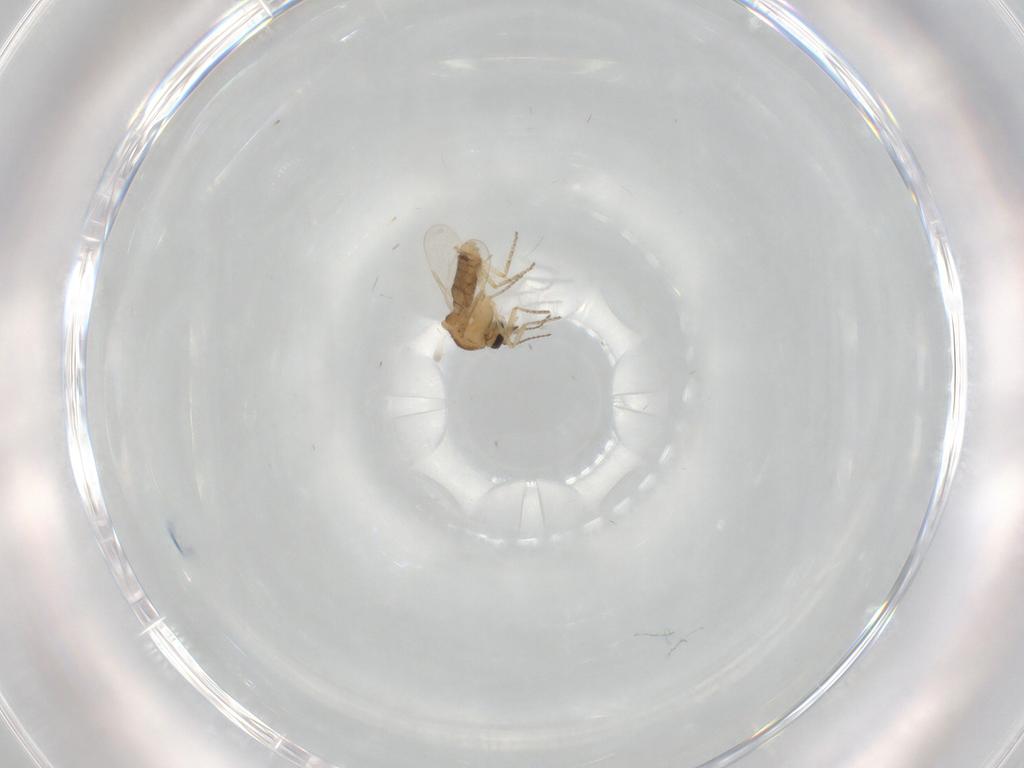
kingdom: Animalia
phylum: Arthropoda
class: Insecta
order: Diptera
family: Ceratopogonidae
